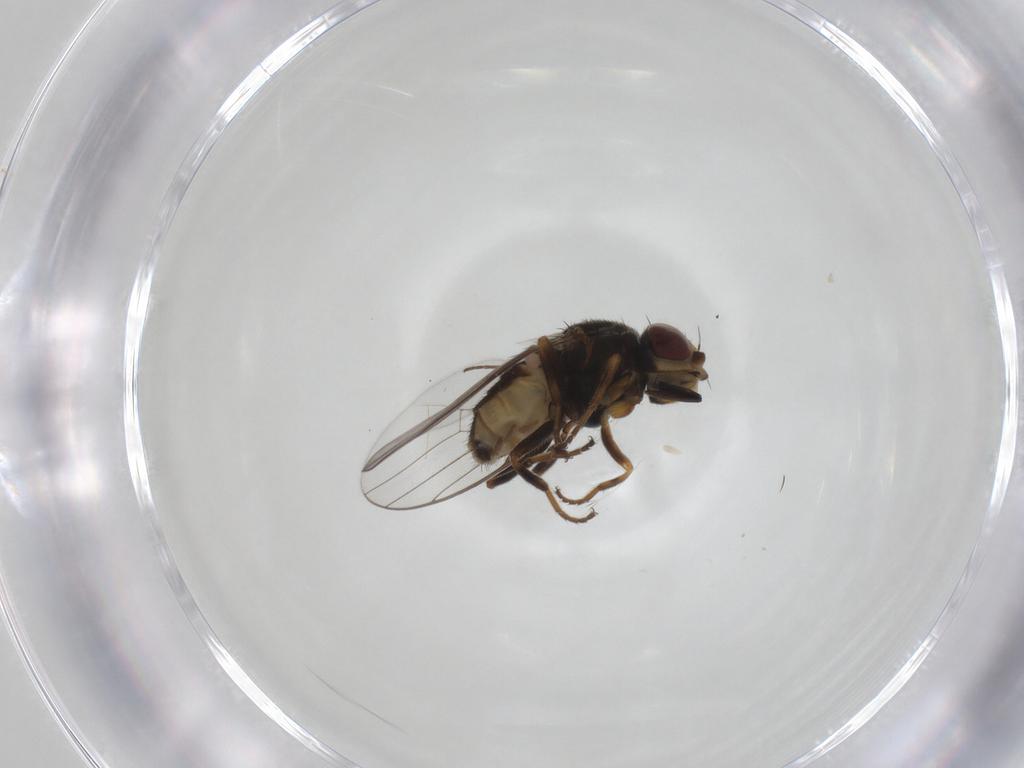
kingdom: Animalia
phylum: Arthropoda
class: Insecta
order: Diptera
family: Chloropidae
